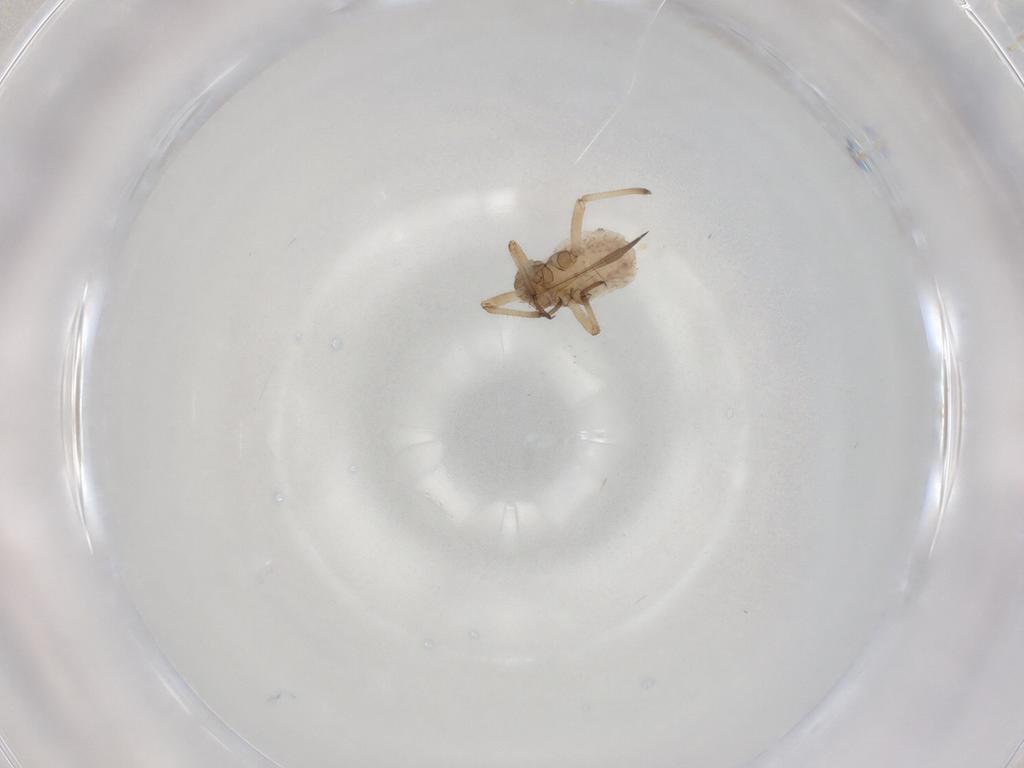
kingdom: Animalia
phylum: Arthropoda
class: Insecta
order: Hemiptera
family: Aphididae
